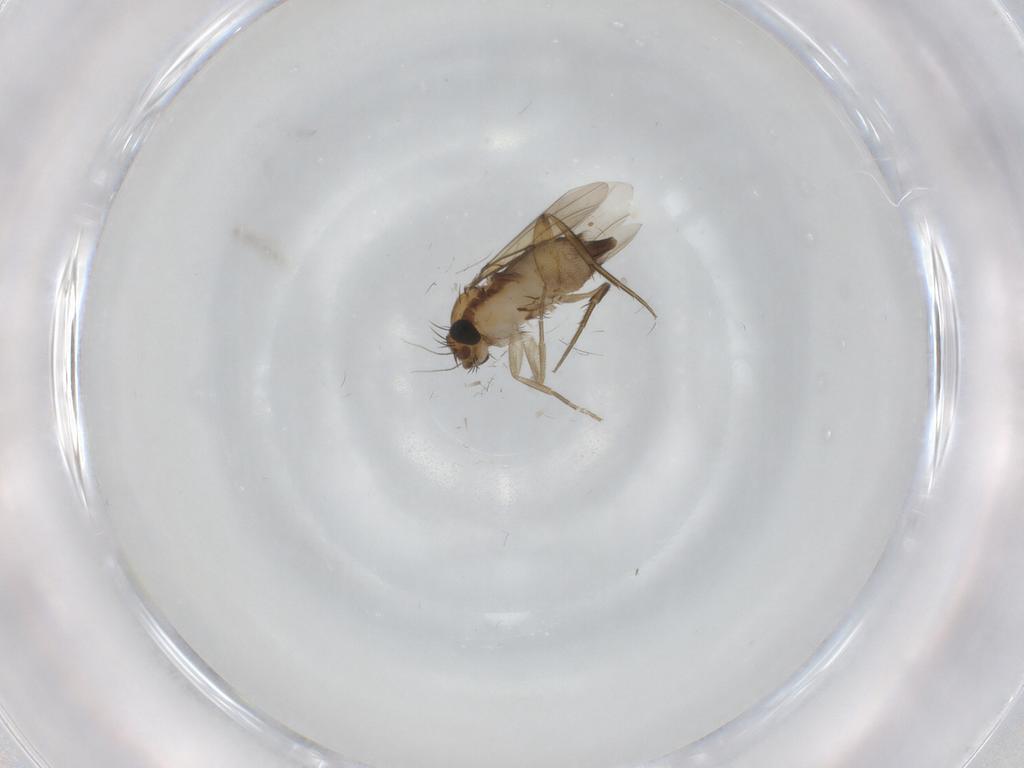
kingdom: Animalia
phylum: Arthropoda
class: Insecta
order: Diptera
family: Phoridae
